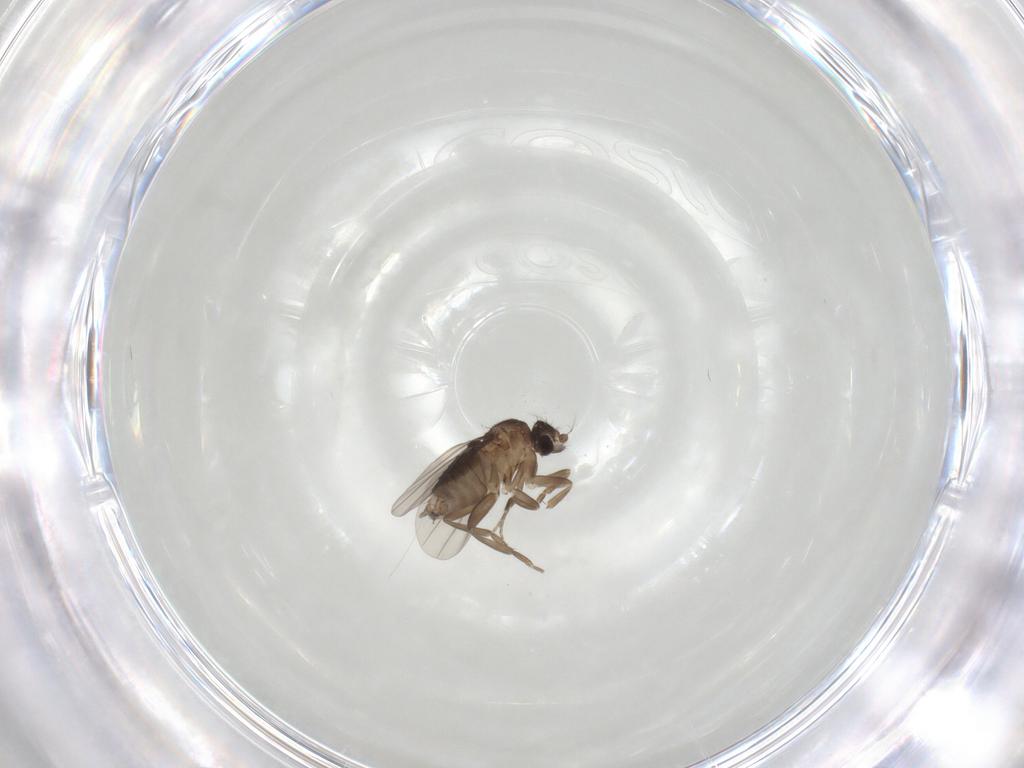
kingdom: Animalia
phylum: Arthropoda
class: Insecta
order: Diptera
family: Phoridae
